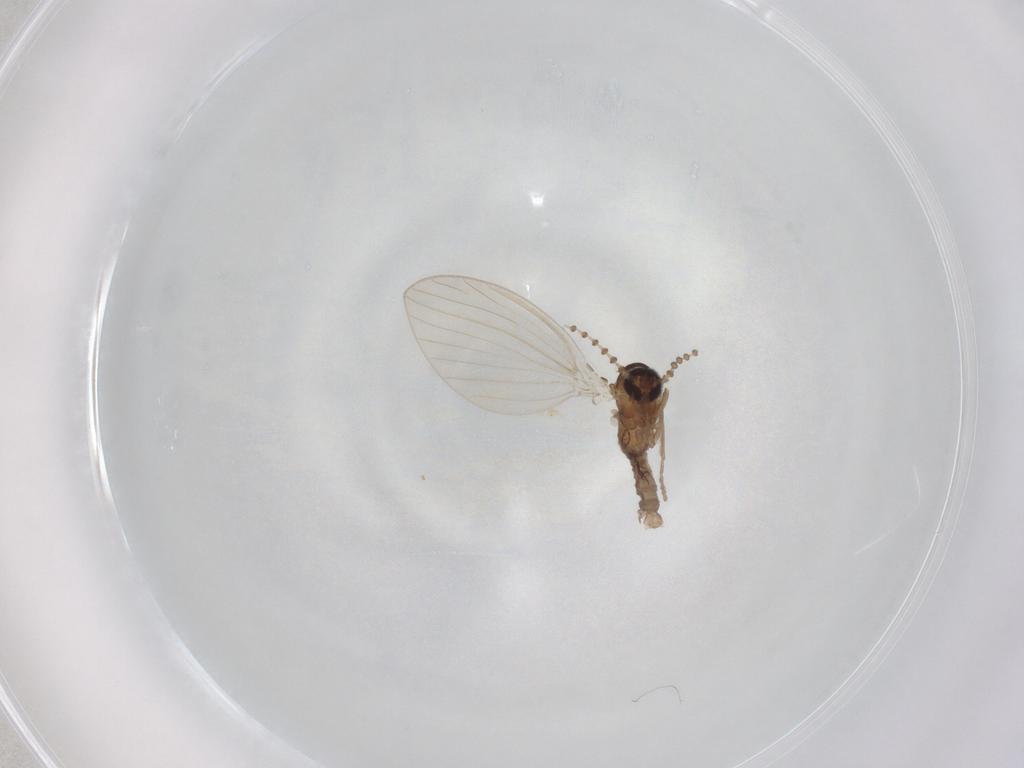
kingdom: Animalia
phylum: Arthropoda
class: Insecta
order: Diptera
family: Psychodidae
